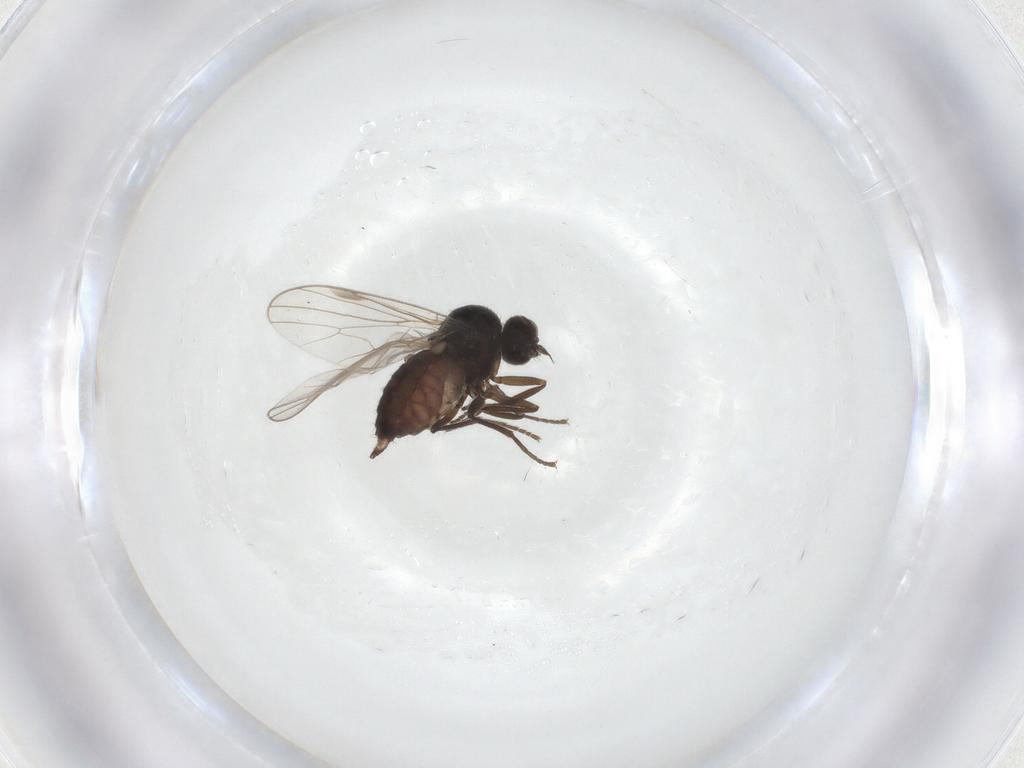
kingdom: Animalia
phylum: Arthropoda
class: Insecta
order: Diptera
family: Hybotidae
